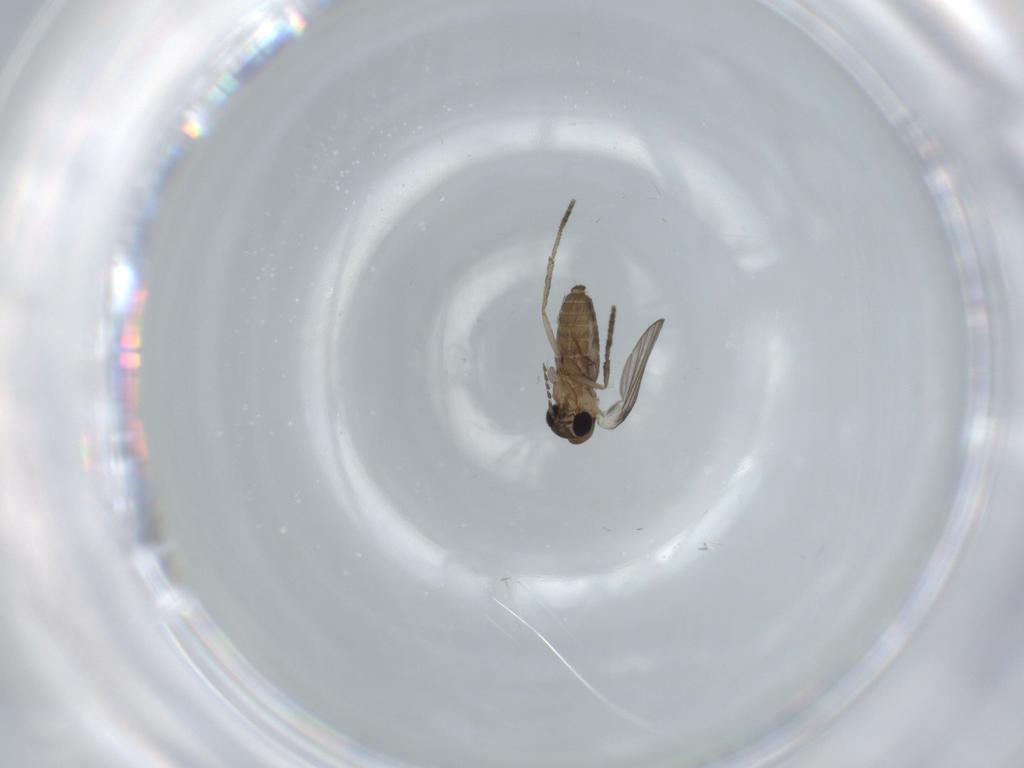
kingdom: Animalia
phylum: Arthropoda
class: Insecta
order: Diptera
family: Psychodidae
